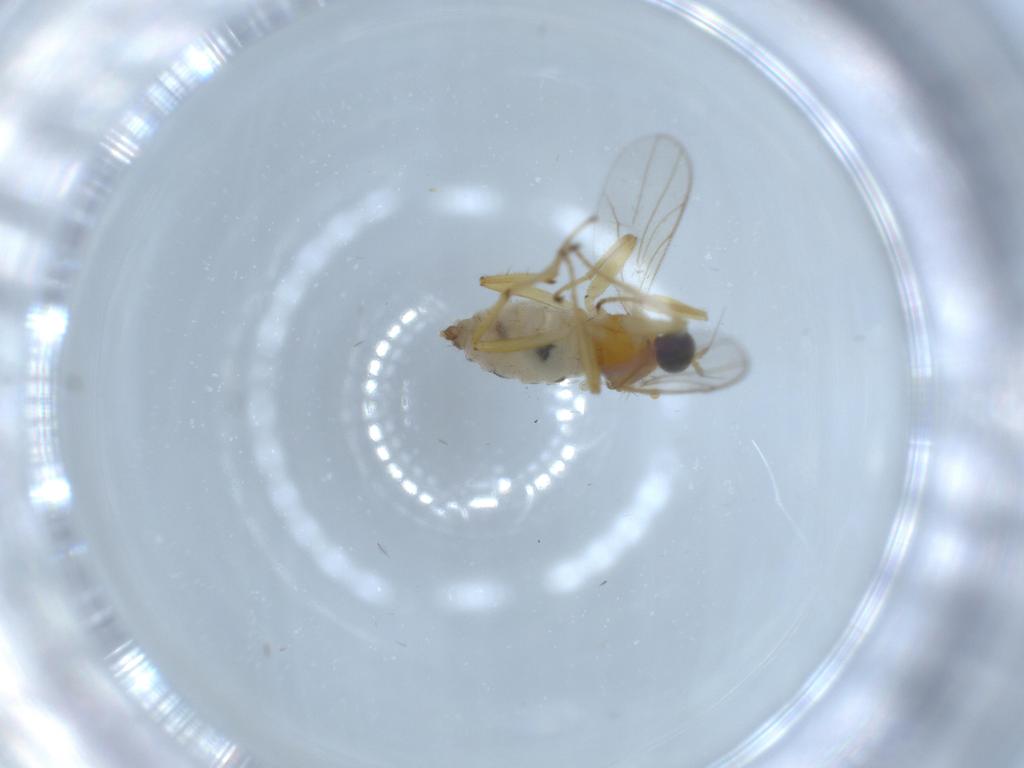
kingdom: Animalia
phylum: Arthropoda
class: Insecta
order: Diptera
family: Hybotidae
